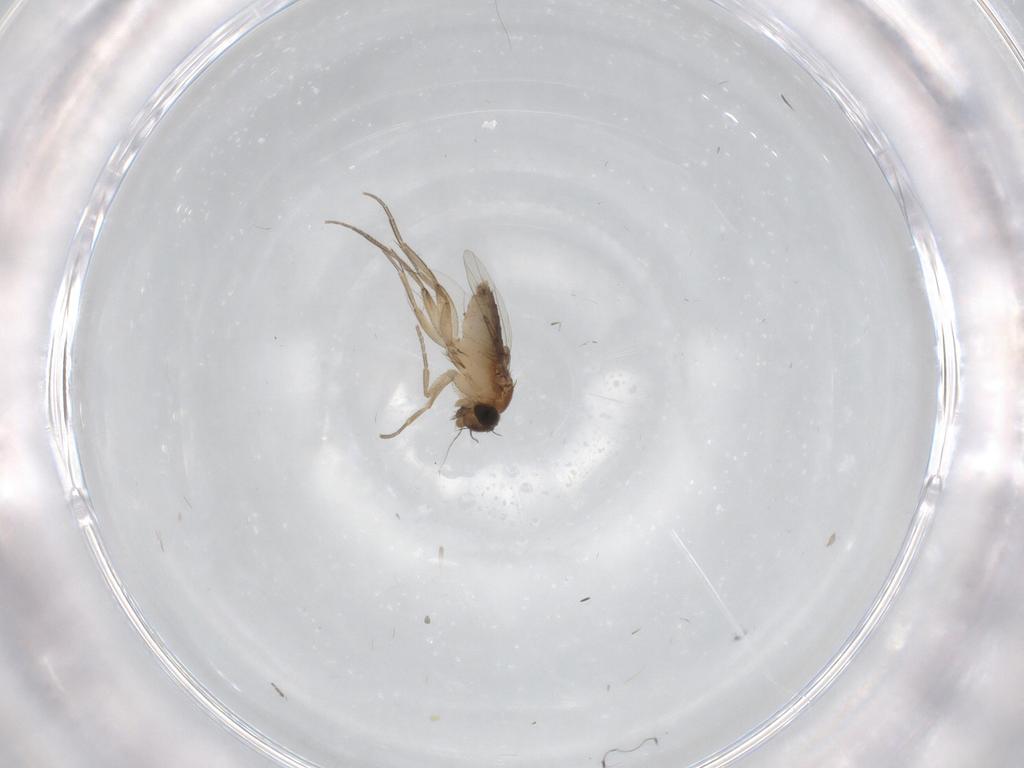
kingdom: Animalia
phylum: Arthropoda
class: Insecta
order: Diptera
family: Phoridae
